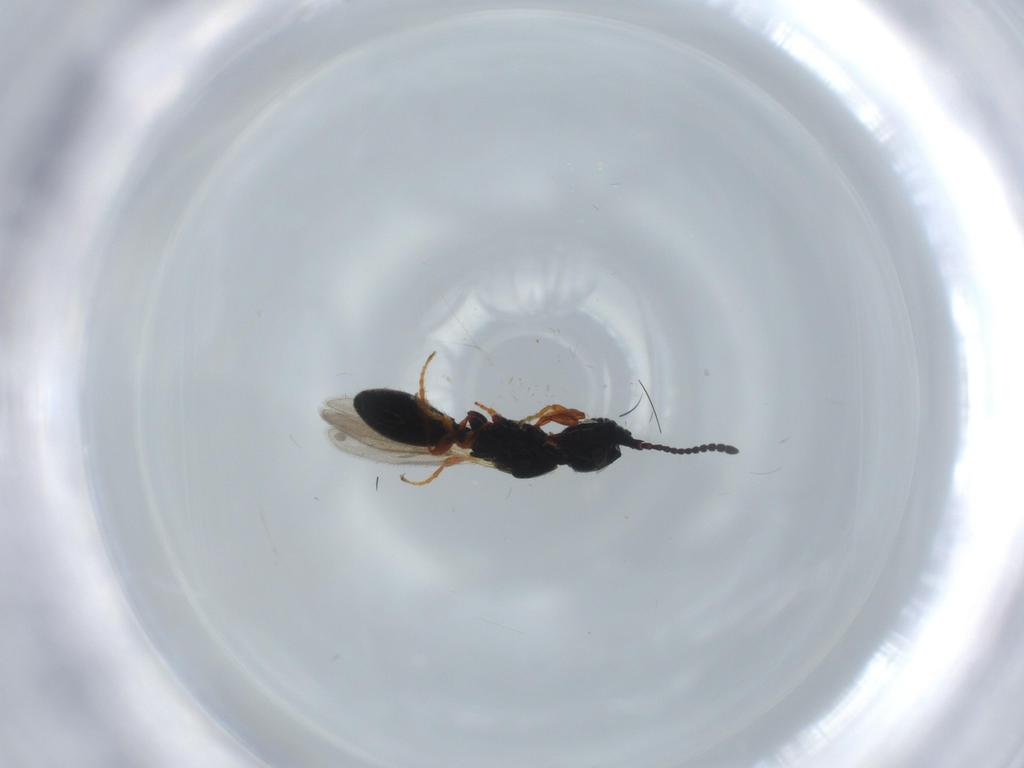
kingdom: Animalia
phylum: Arthropoda
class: Insecta
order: Hymenoptera
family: Diapriidae
